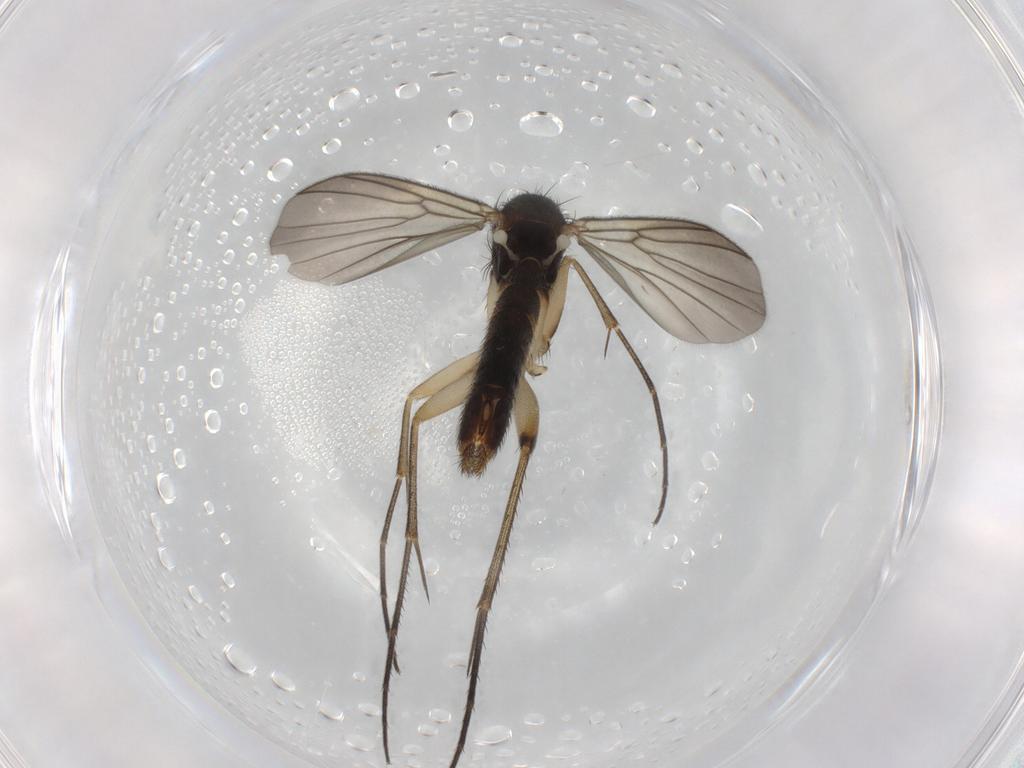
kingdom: Animalia
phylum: Arthropoda
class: Insecta
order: Diptera
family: Mycetophilidae
